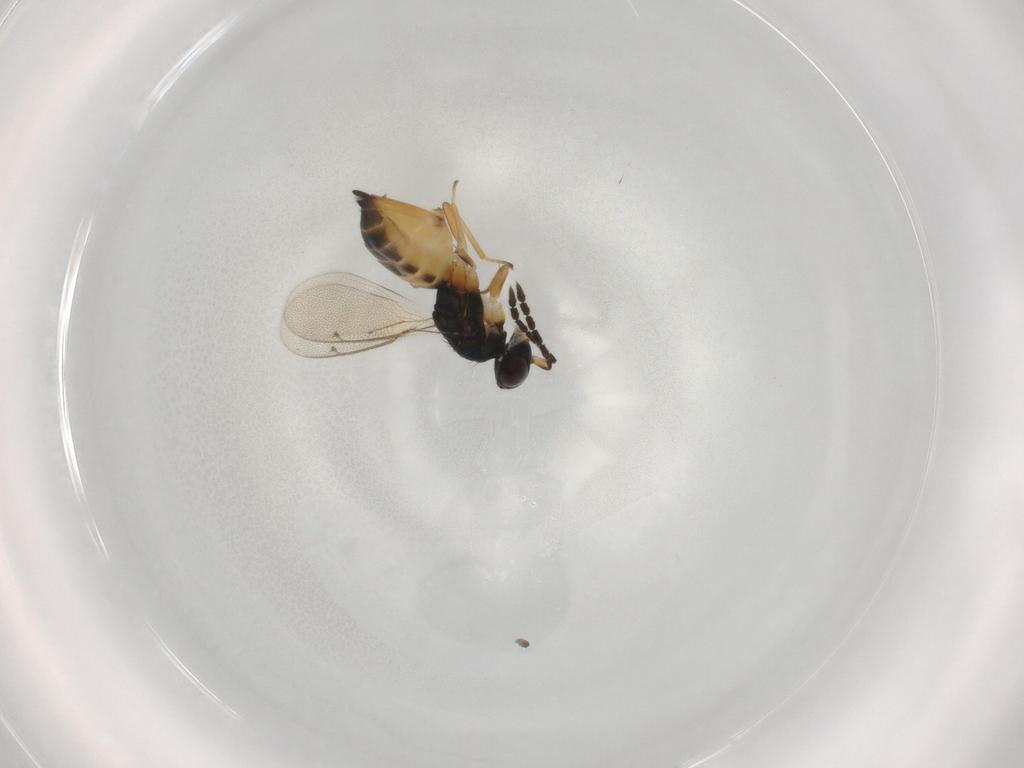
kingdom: Animalia
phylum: Arthropoda
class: Insecta
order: Hymenoptera
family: Eulophidae
